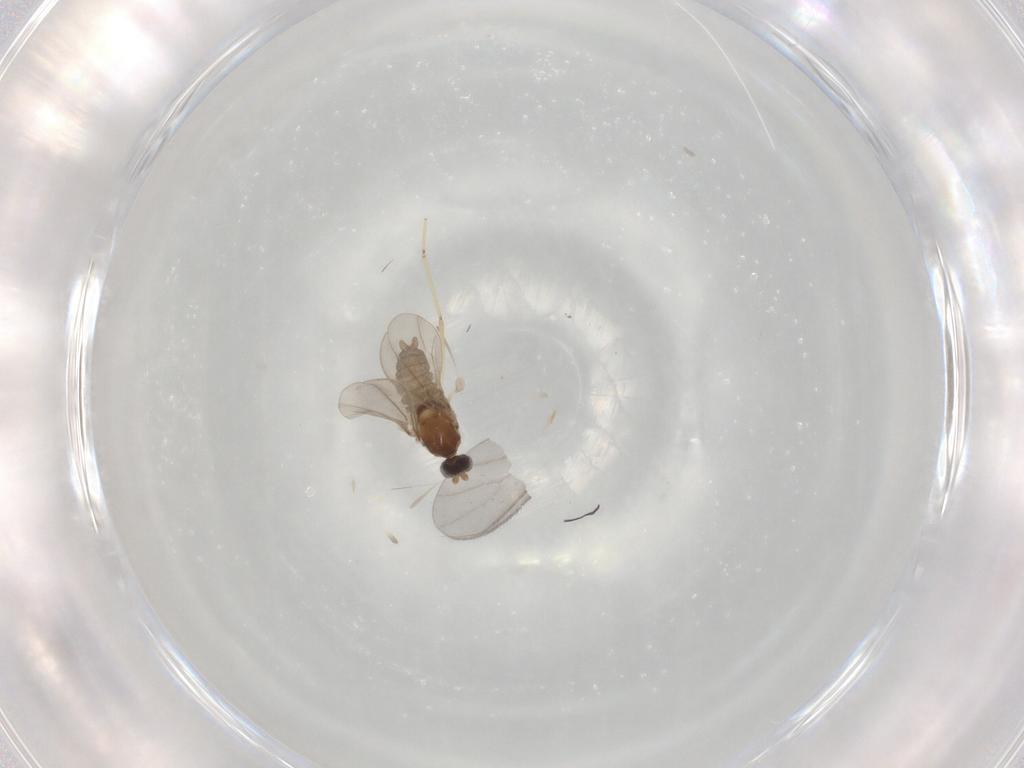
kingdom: Animalia
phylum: Arthropoda
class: Insecta
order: Diptera
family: Cecidomyiidae
